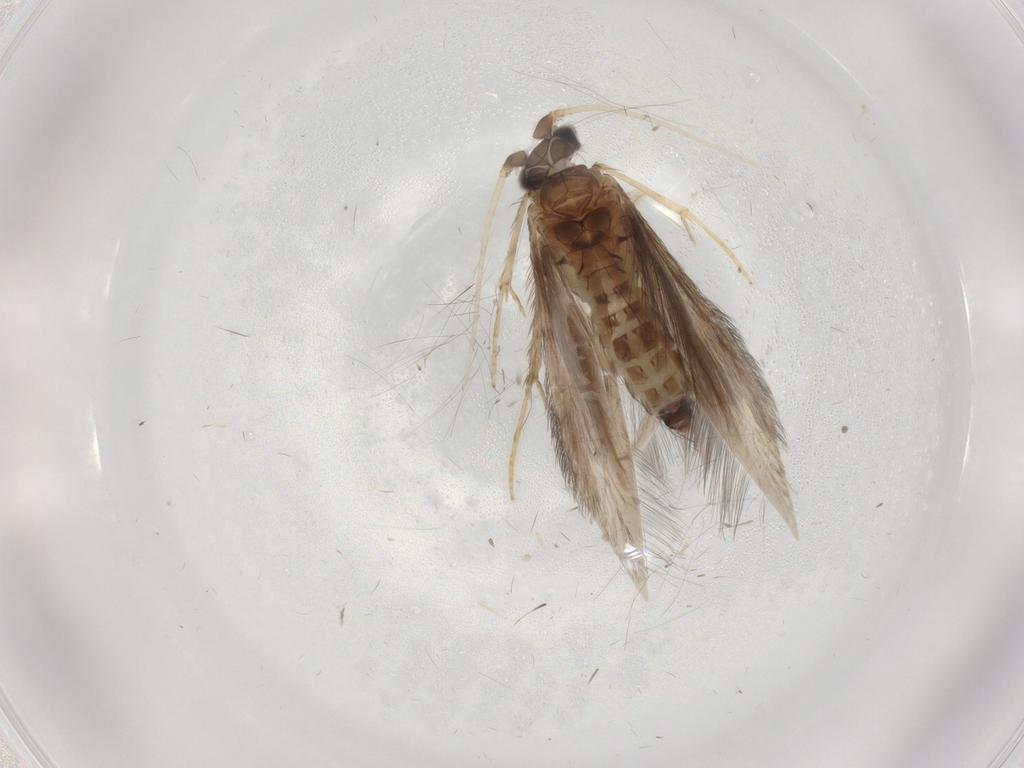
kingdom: Animalia
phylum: Arthropoda
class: Insecta
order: Trichoptera
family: Hydroptilidae
